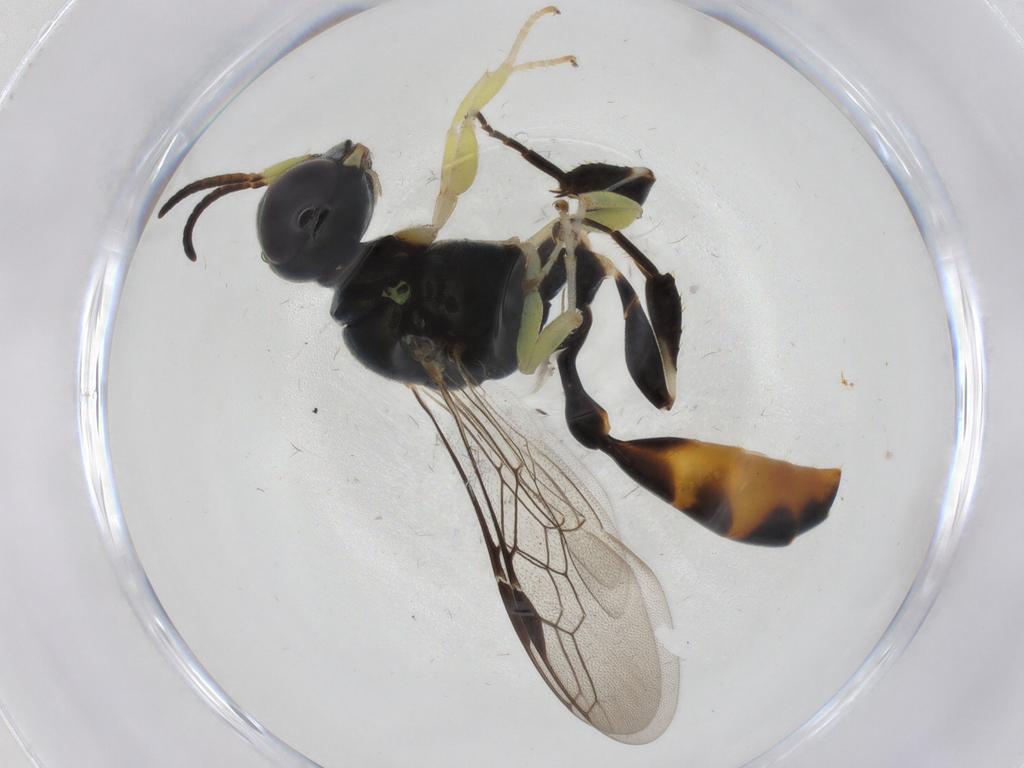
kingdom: Animalia
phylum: Arthropoda
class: Insecta
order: Hymenoptera
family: Crabronidae
